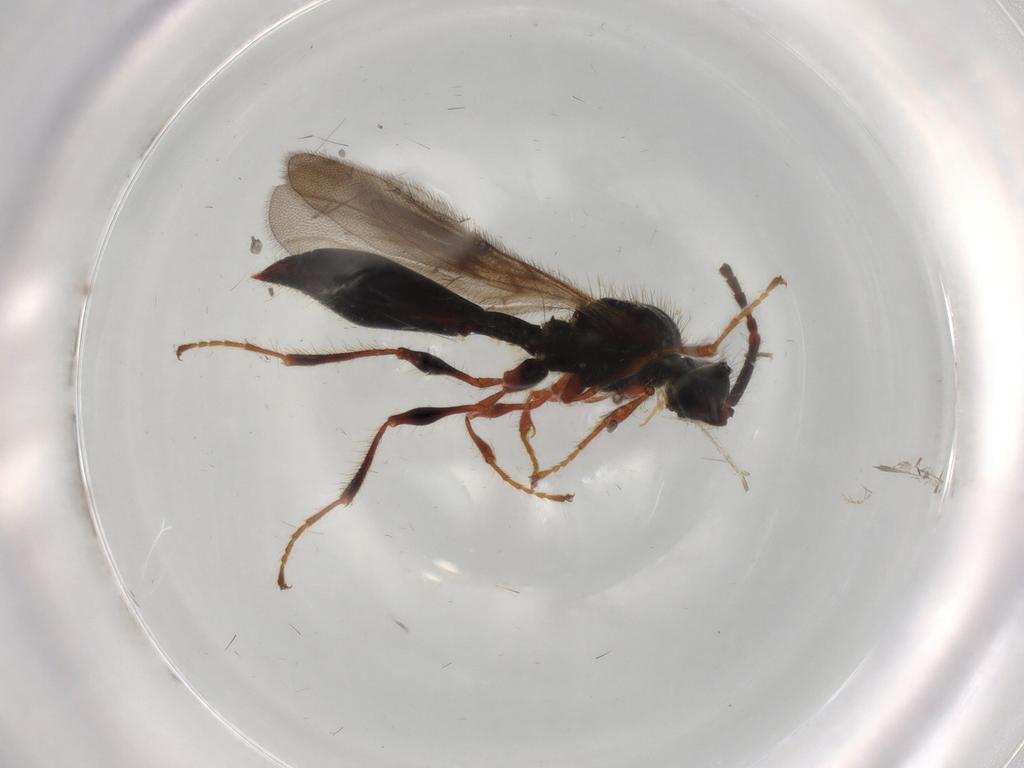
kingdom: Animalia
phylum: Arthropoda
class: Insecta
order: Hymenoptera
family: Diapriidae
